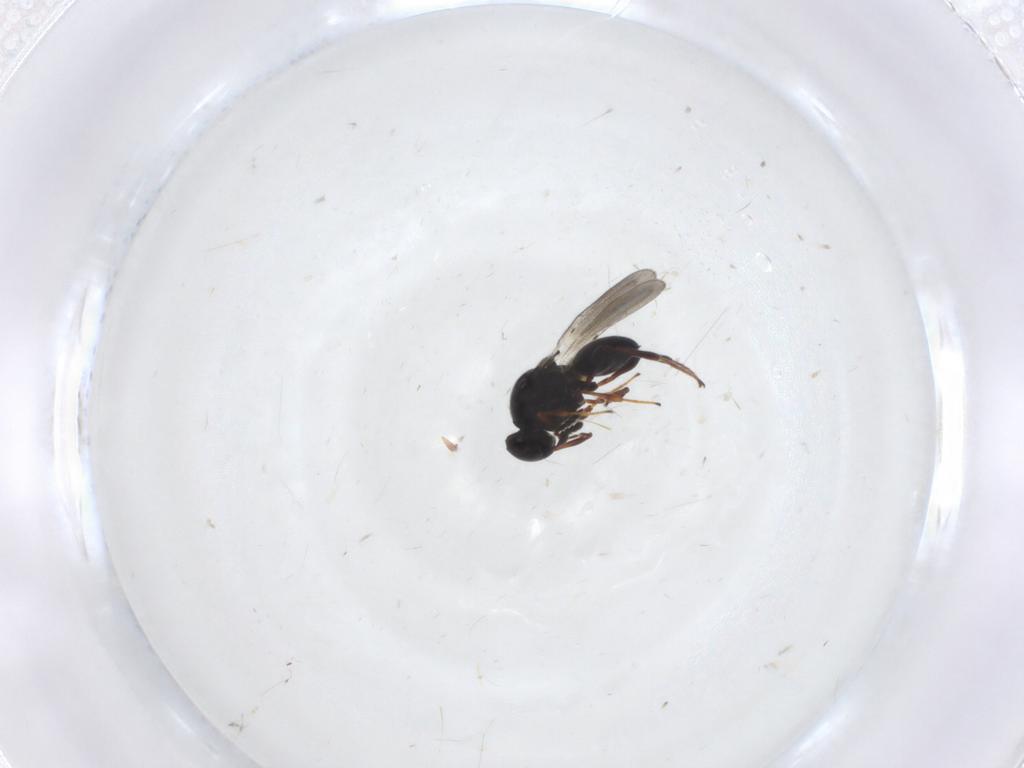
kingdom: Animalia
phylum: Arthropoda
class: Insecta
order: Hymenoptera
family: Platygastridae
